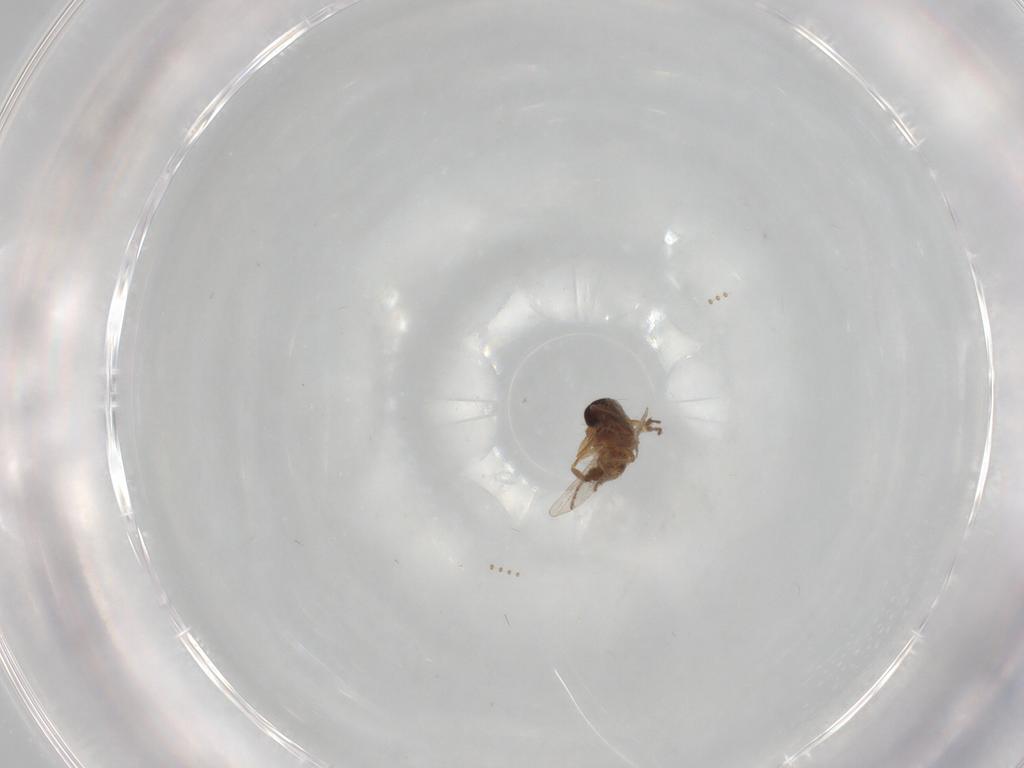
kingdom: Animalia
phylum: Arthropoda
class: Insecta
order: Diptera
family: Ceratopogonidae
